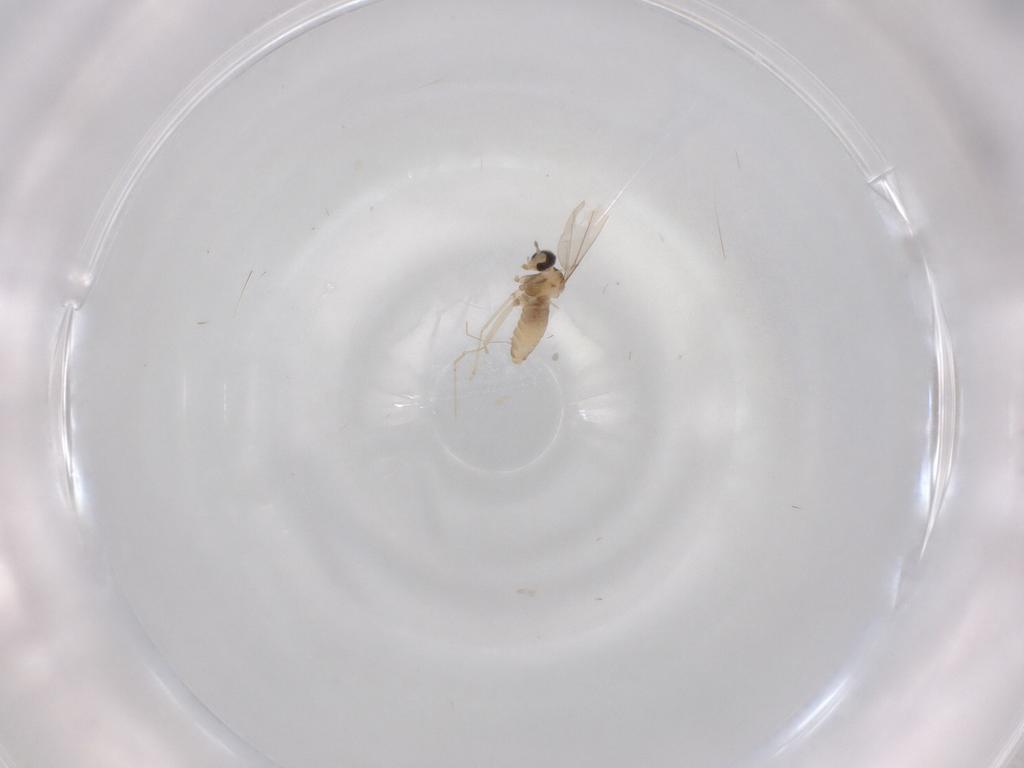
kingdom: Animalia
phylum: Arthropoda
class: Insecta
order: Diptera
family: Cecidomyiidae
